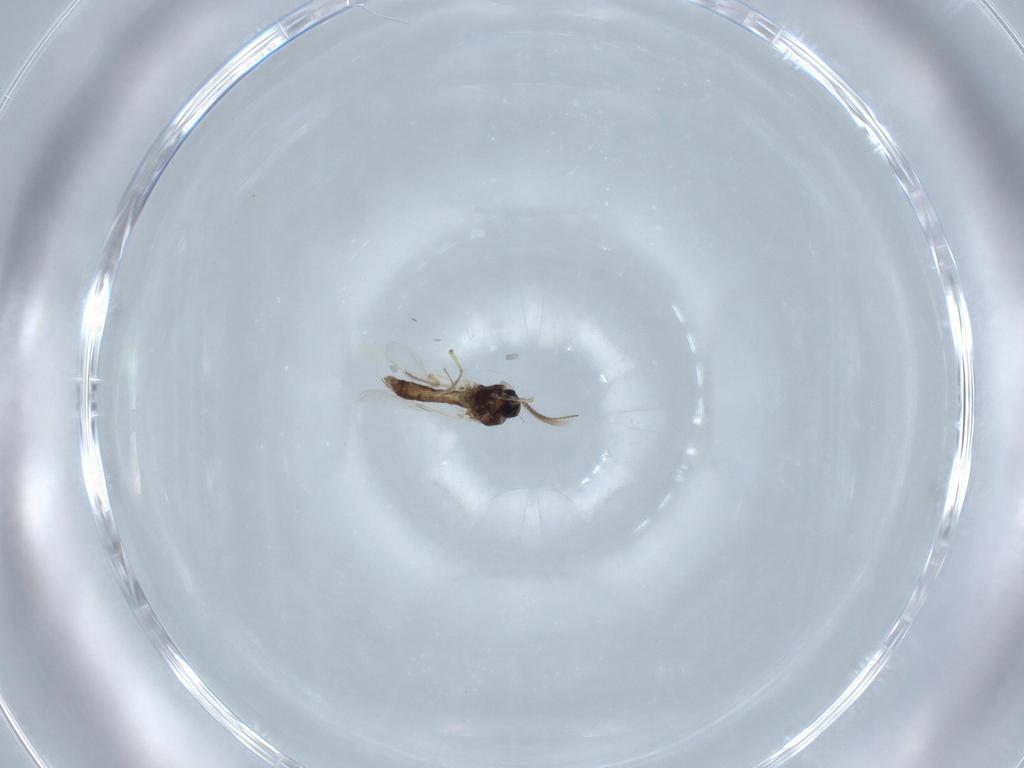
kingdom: Animalia
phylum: Arthropoda
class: Insecta
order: Diptera
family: Ceratopogonidae
